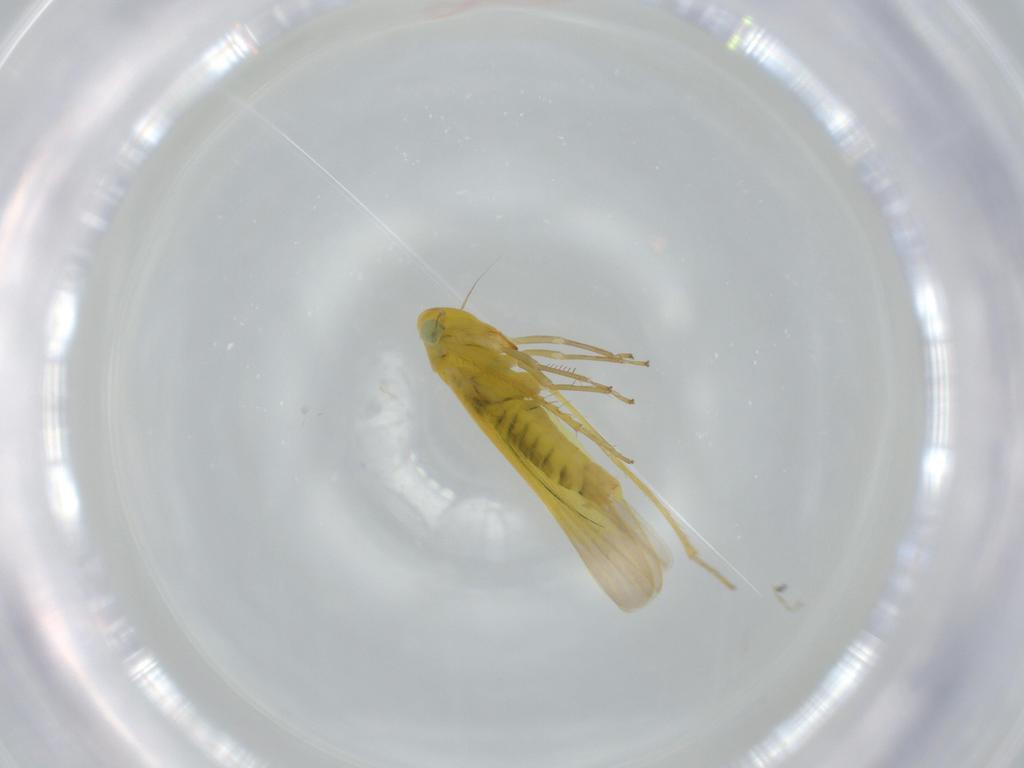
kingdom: Animalia
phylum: Arthropoda
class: Insecta
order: Hemiptera
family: Cicadellidae
